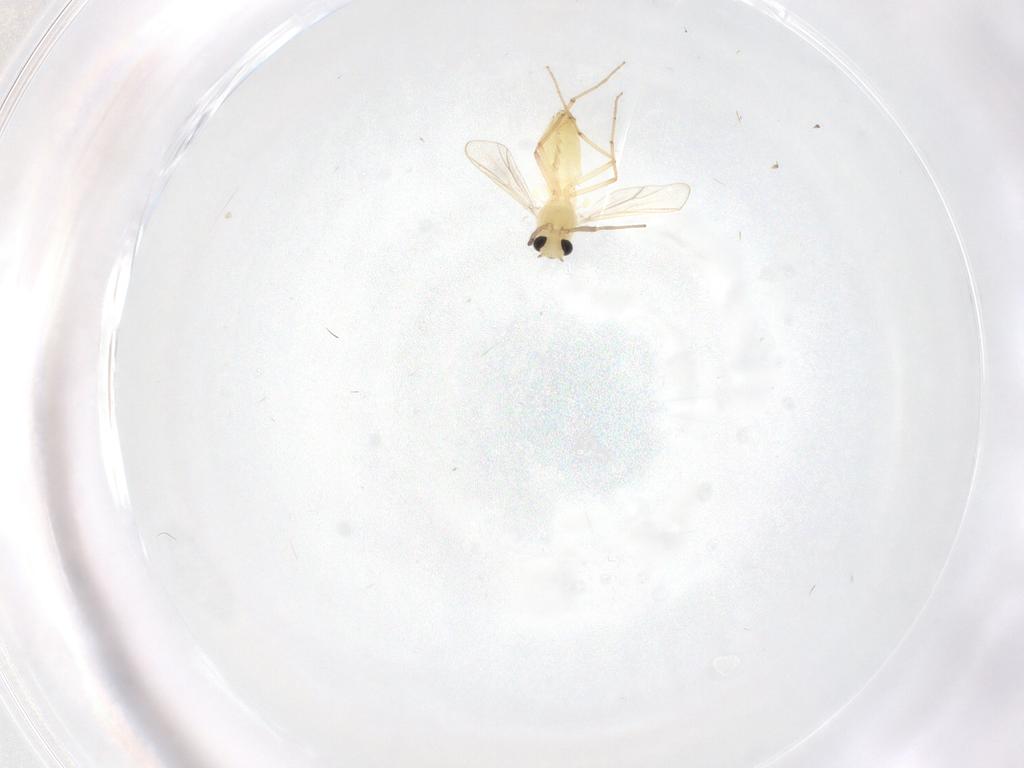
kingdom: Animalia
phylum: Arthropoda
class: Insecta
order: Diptera
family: Chironomidae
